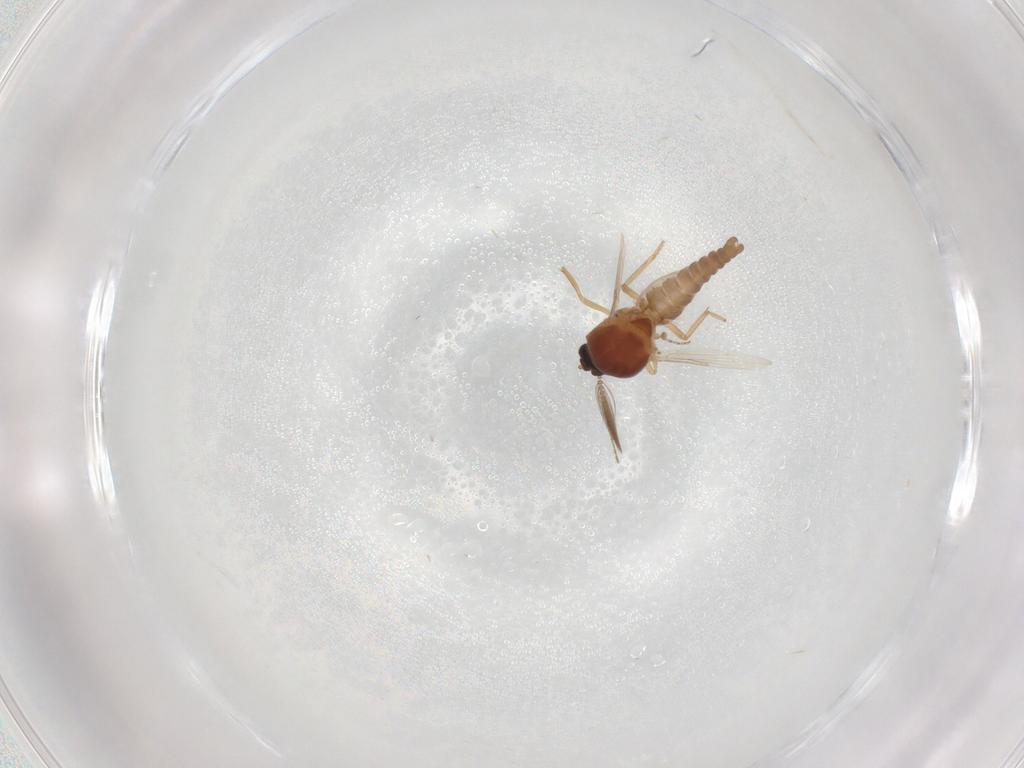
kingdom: Animalia
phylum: Arthropoda
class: Insecta
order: Diptera
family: Ceratopogonidae
